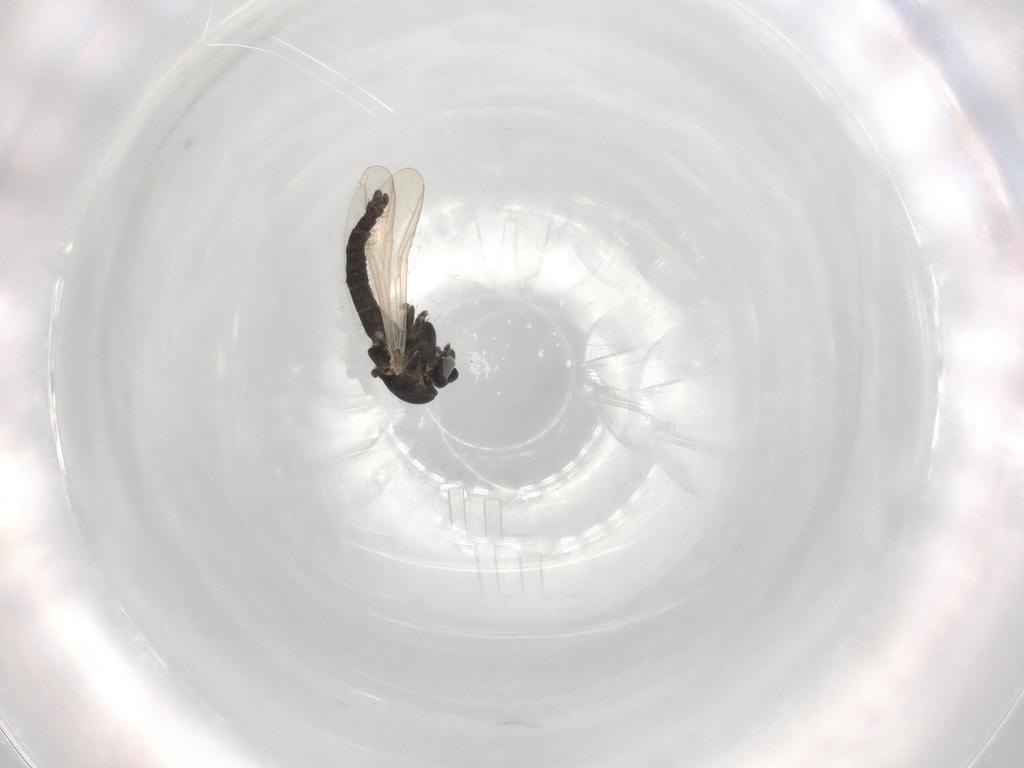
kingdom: Animalia
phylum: Arthropoda
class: Insecta
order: Diptera
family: Chironomidae
